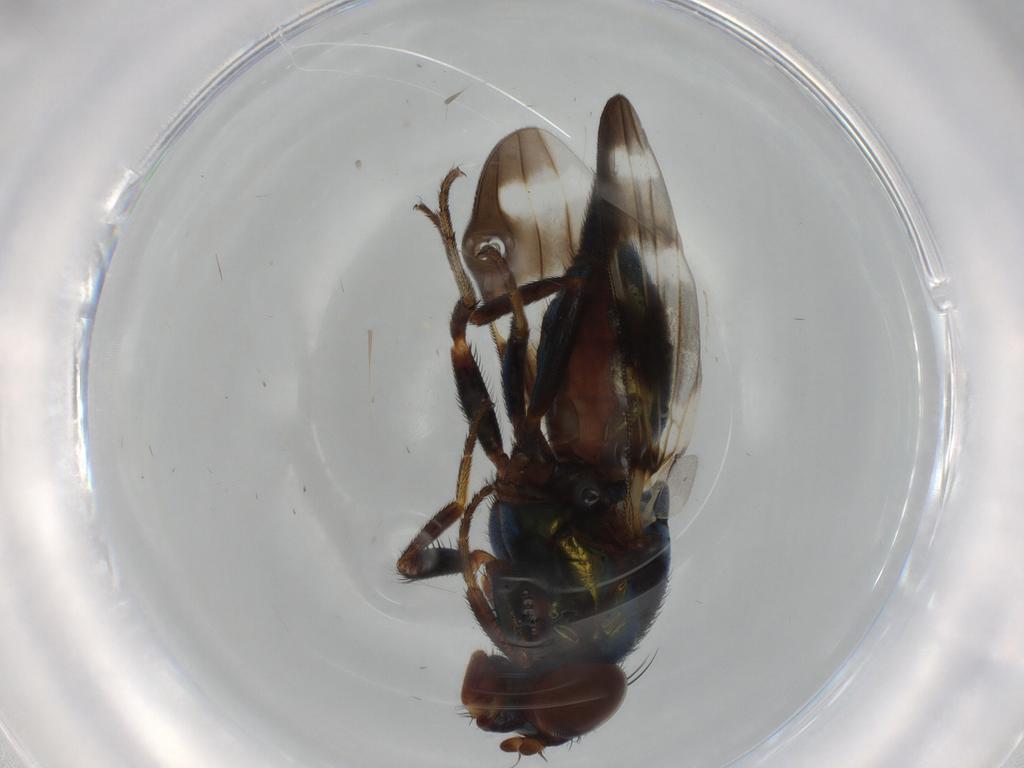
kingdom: Animalia
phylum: Arthropoda
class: Insecta
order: Diptera
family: Ulidiidae
